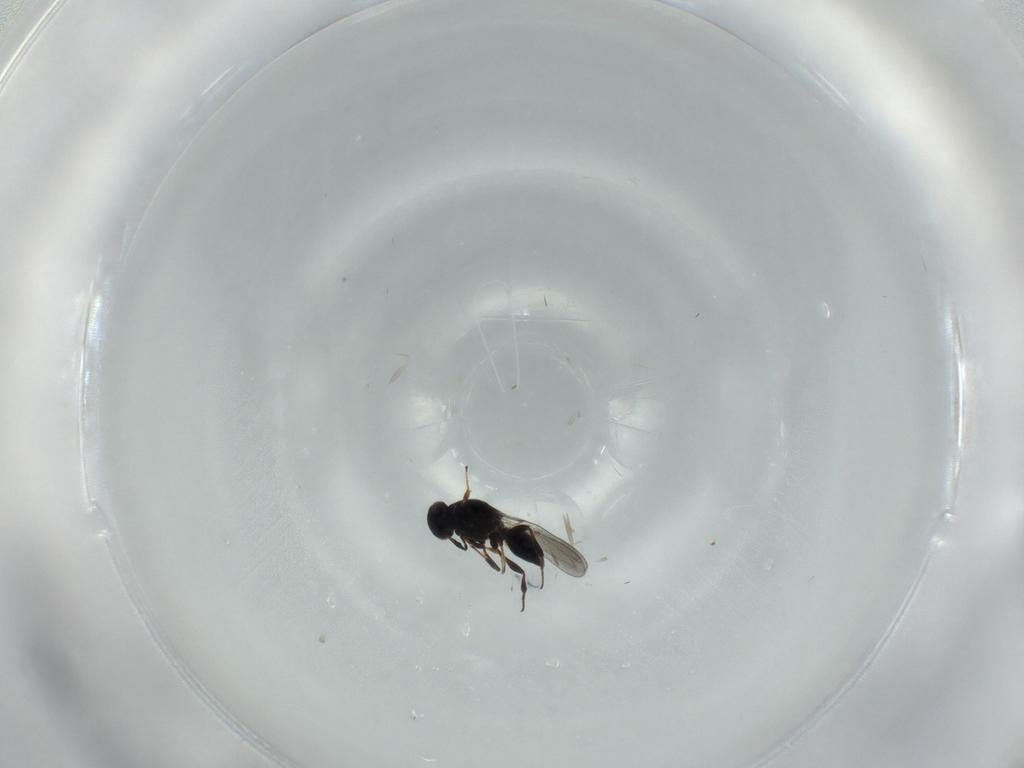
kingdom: Animalia
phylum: Arthropoda
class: Insecta
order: Hymenoptera
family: Platygastridae
